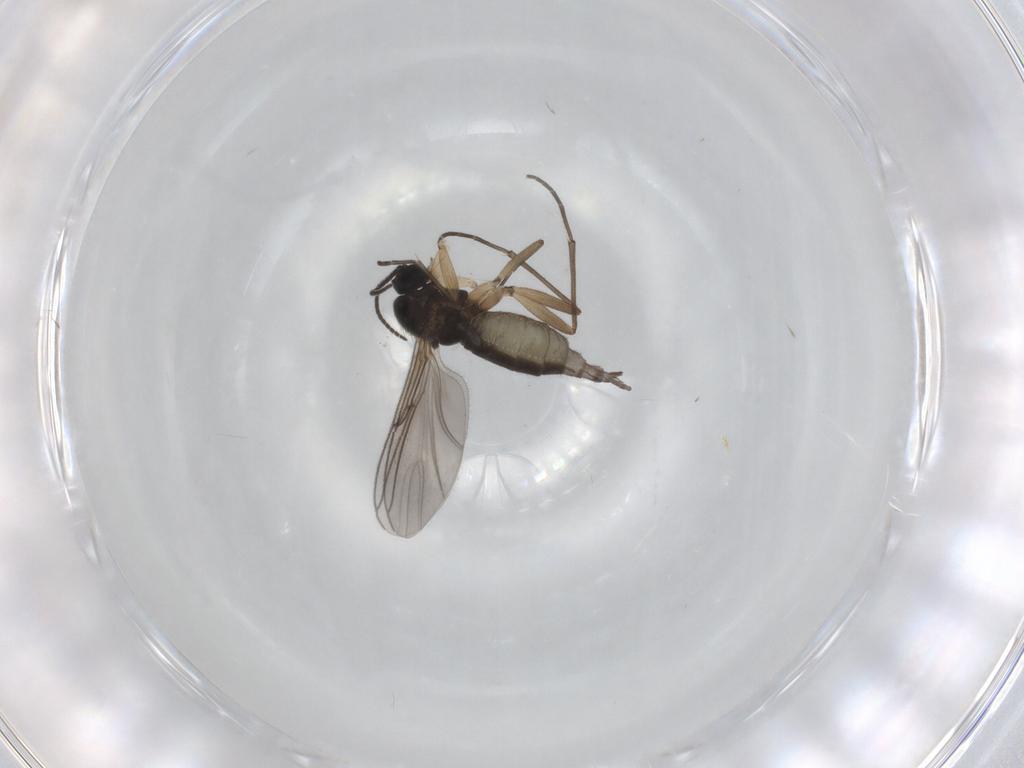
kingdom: Animalia
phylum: Arthropoda
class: Insecta
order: Diptera
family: Sciaridae
